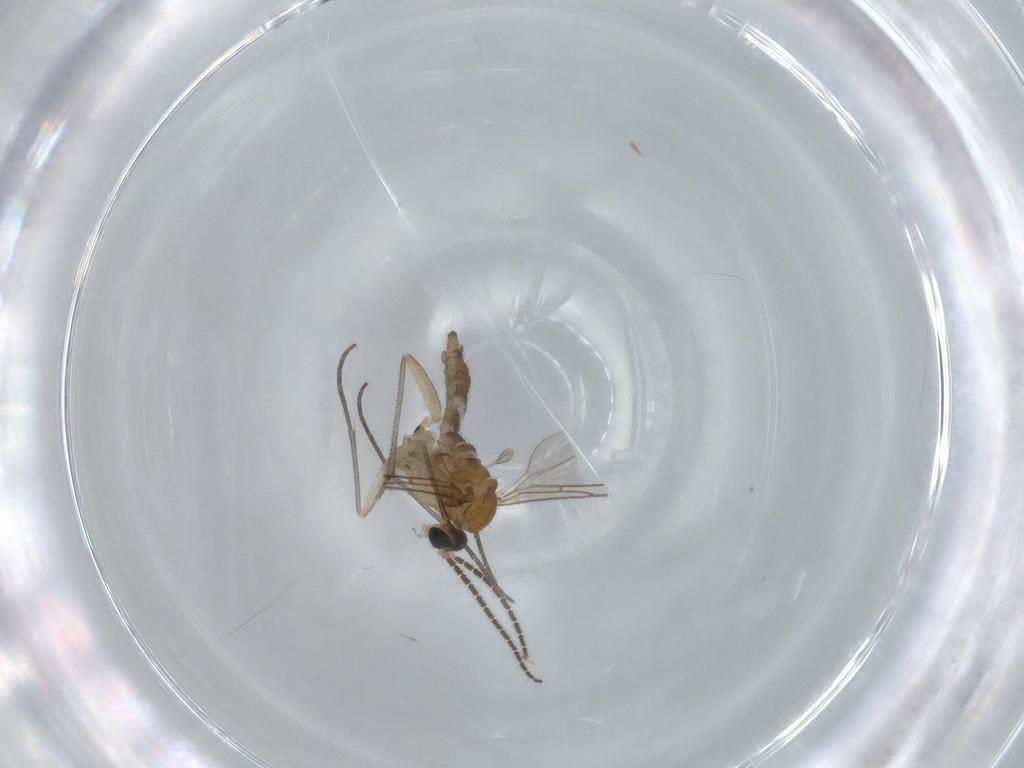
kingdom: Animalia
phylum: Arthropoda
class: Insecta
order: Diptera
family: Sciaridae
